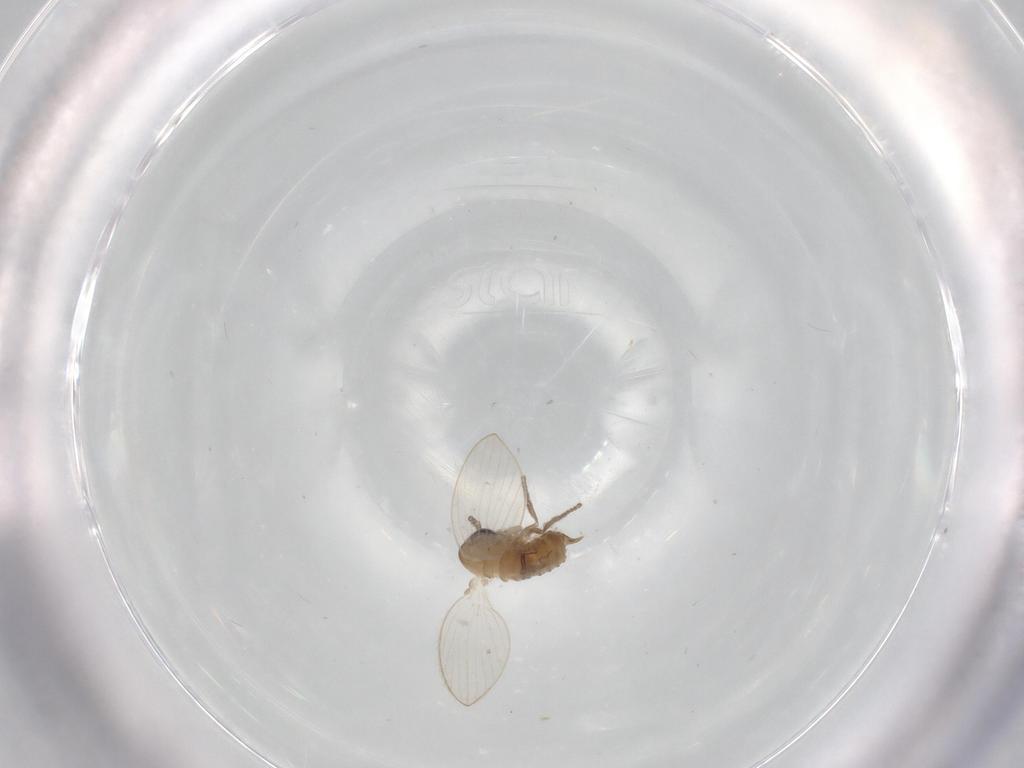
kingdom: Animalia
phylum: Arthropoda
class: Insecta
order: Diptera
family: Psychodidae
